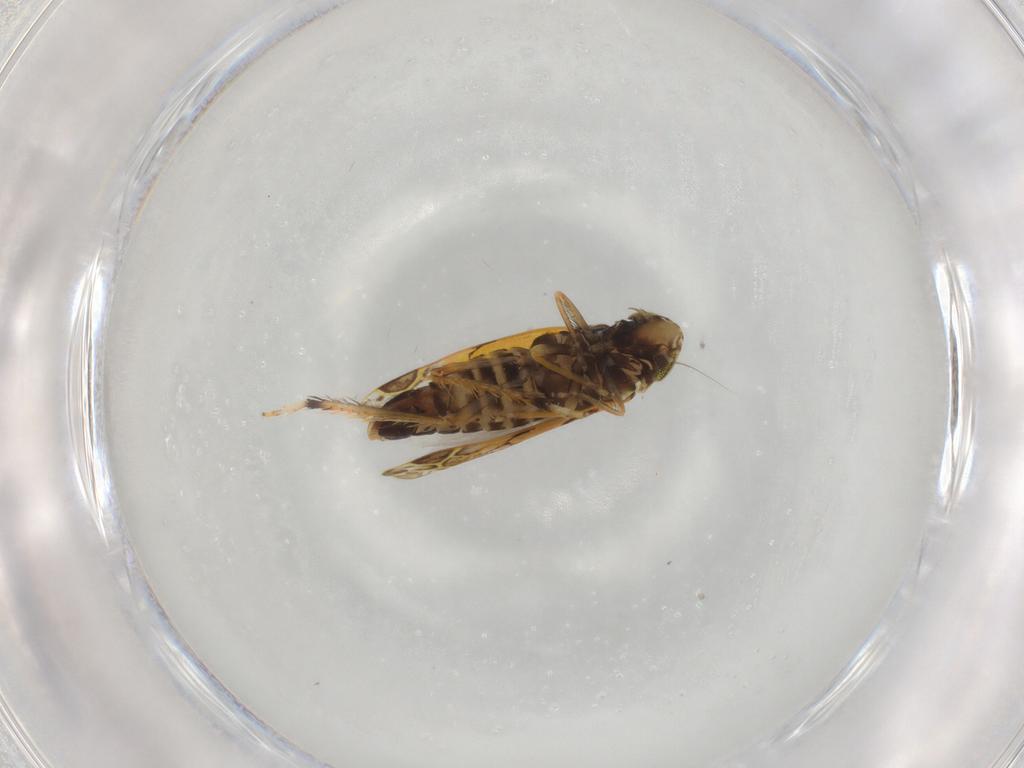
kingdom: Animalia
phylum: Arthropoda
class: Insecta
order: Hemiptera
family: Cicadellidae
